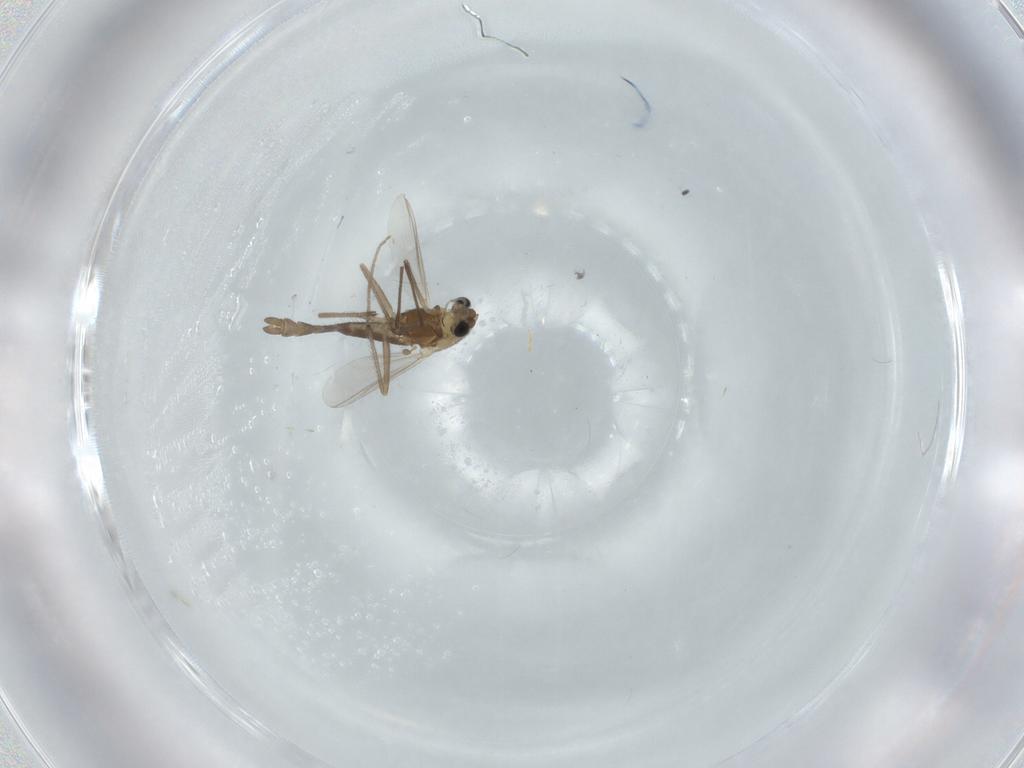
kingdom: Animalia
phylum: Arthropoda
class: Insecta
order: Diptera
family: Chironomidae
